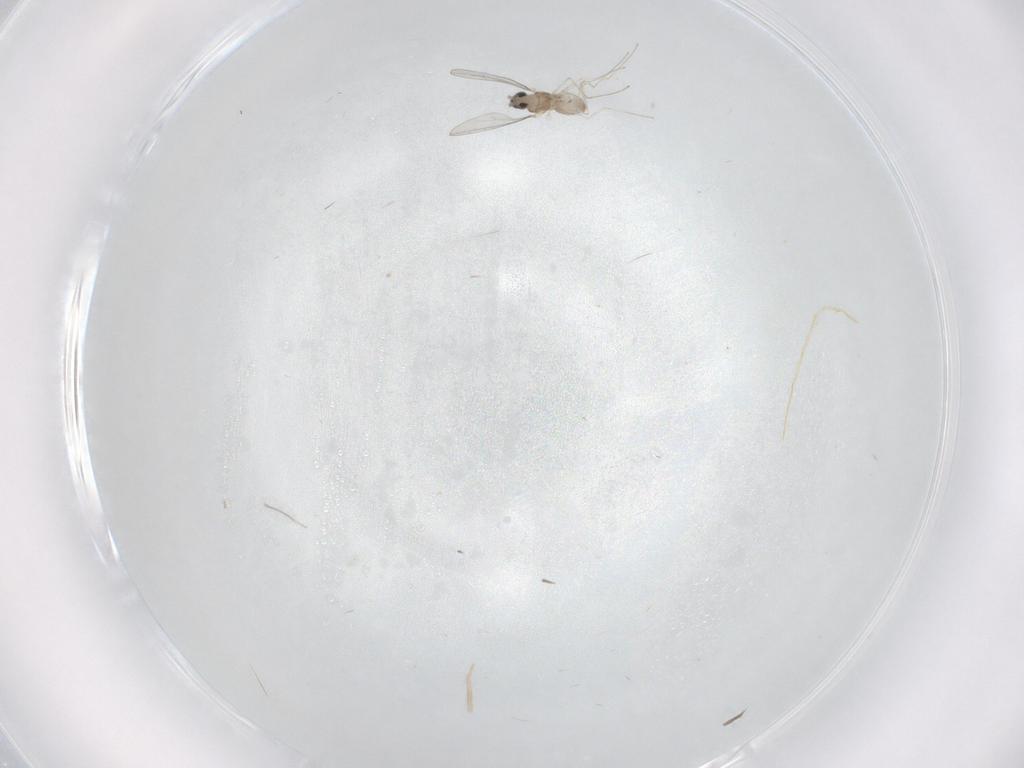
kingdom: Animalia
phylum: Arthropoda
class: Insecta
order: Diptera
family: Cecidomyiidae
